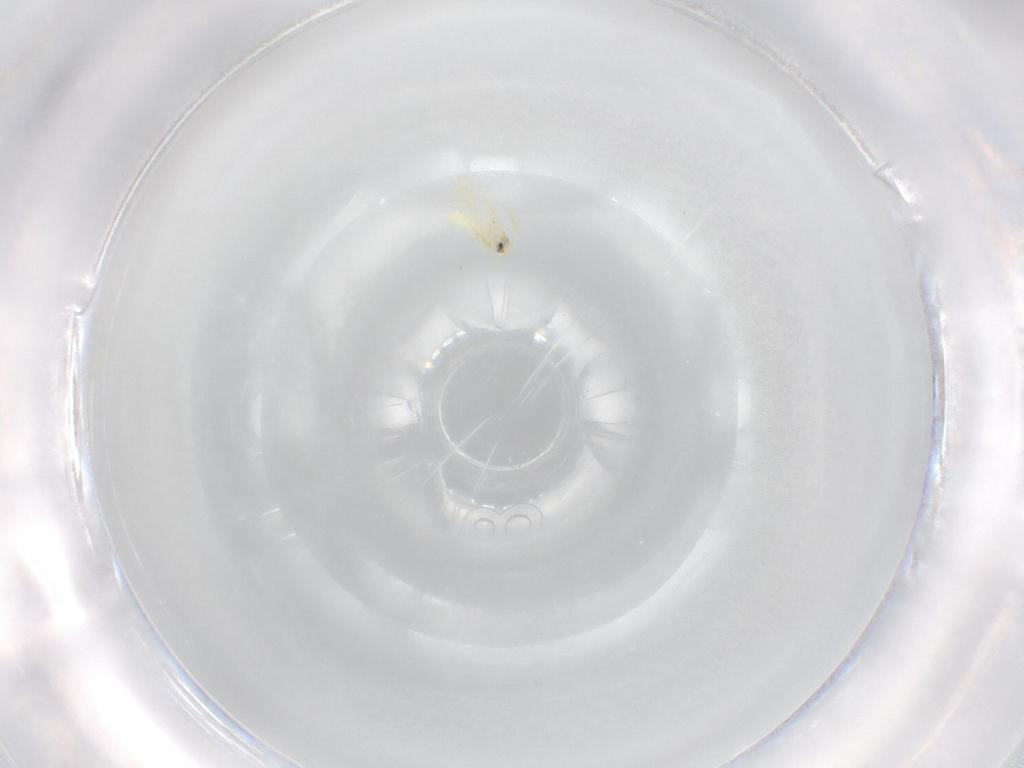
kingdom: Animalia
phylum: Arthropoda
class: Insecta
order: Hemiptera
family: Aleyrodidae
